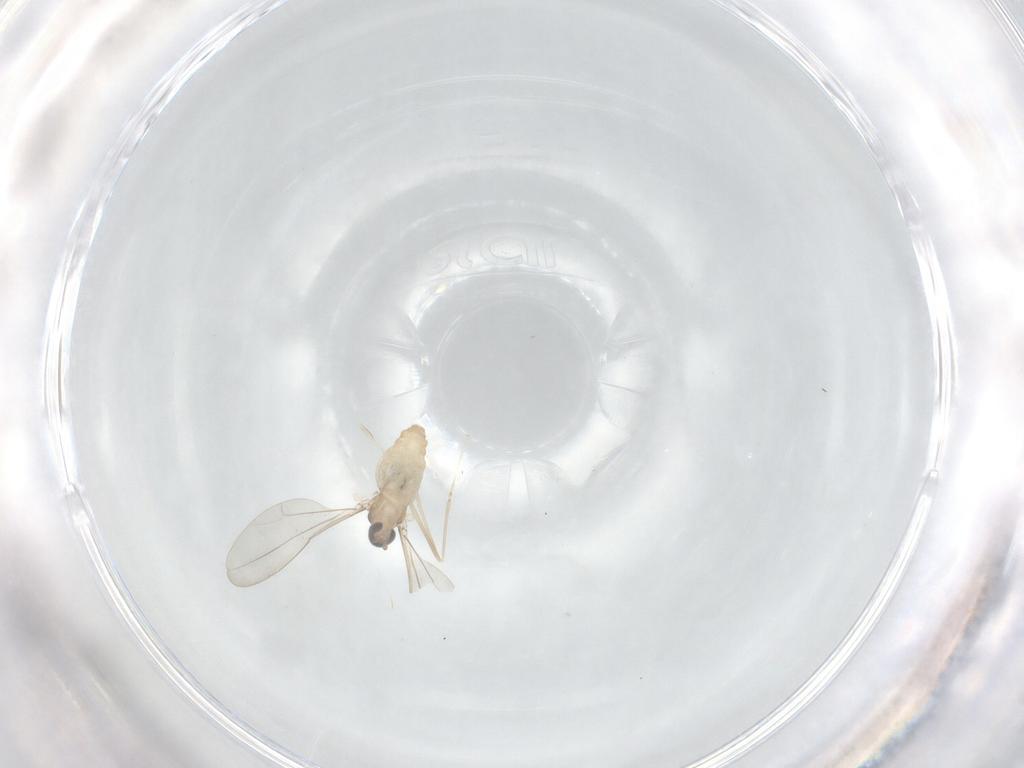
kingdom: Animalia
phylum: Arthropoda
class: Insecta
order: Diptera
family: Cecidomyiidae
